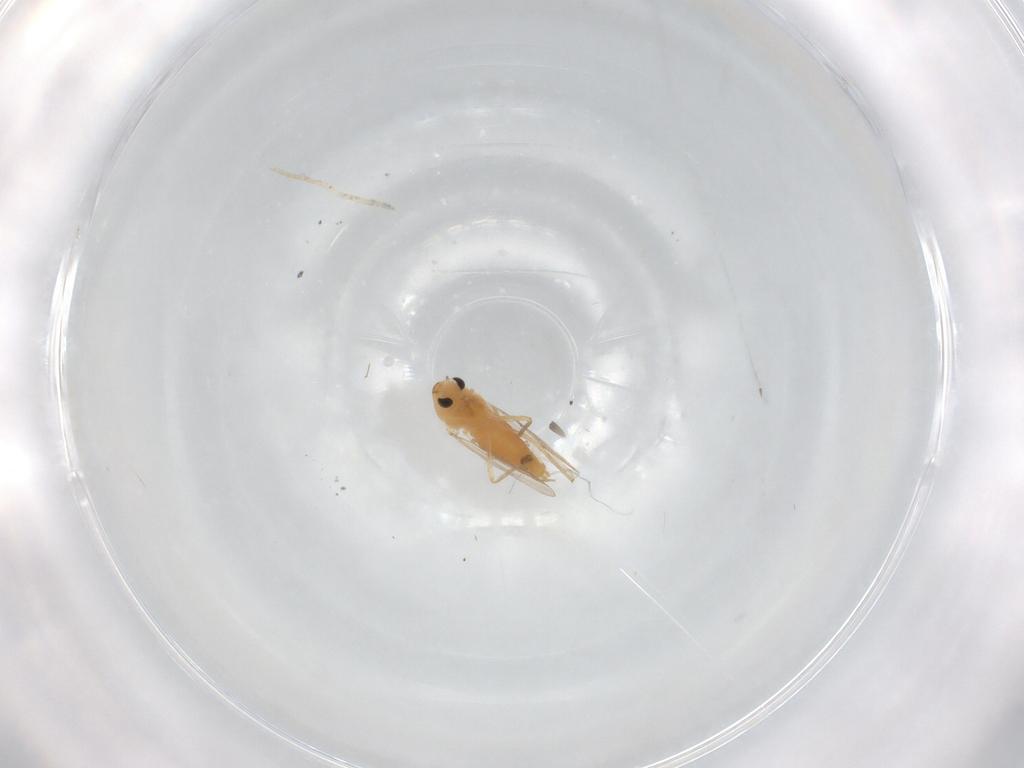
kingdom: Animalia
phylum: Arthropoda
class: Insecta
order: Diptera
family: Chironomidae
